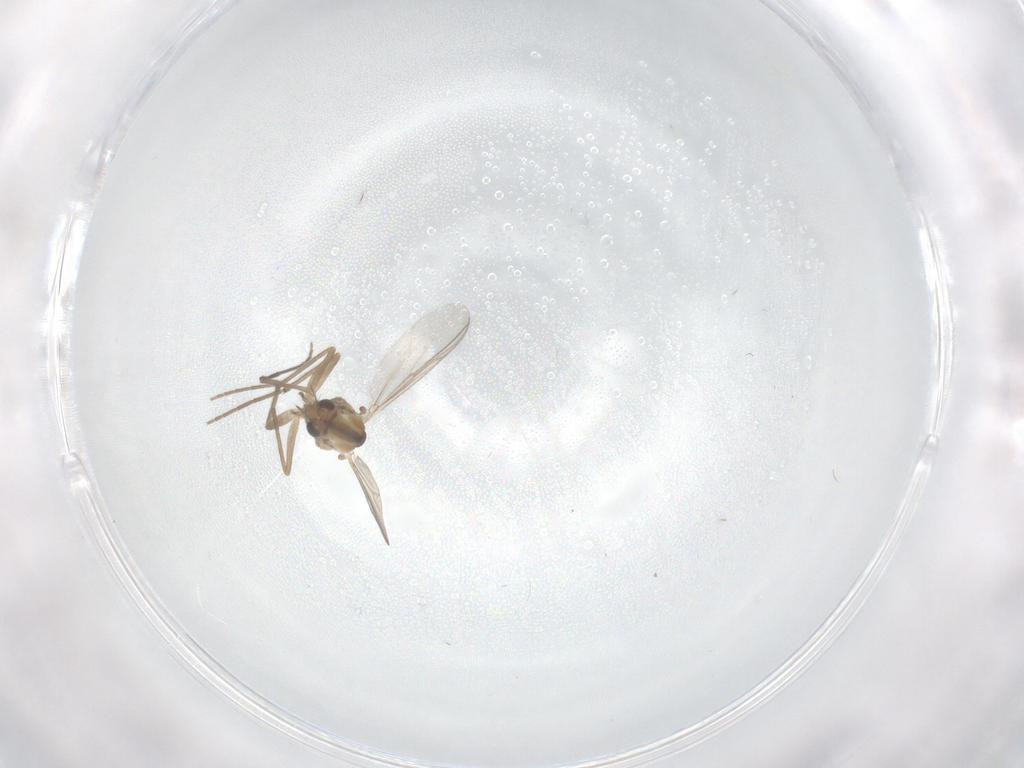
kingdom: Animalia
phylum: Arthropoda
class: Insecta
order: Diptera
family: Chironomidae
